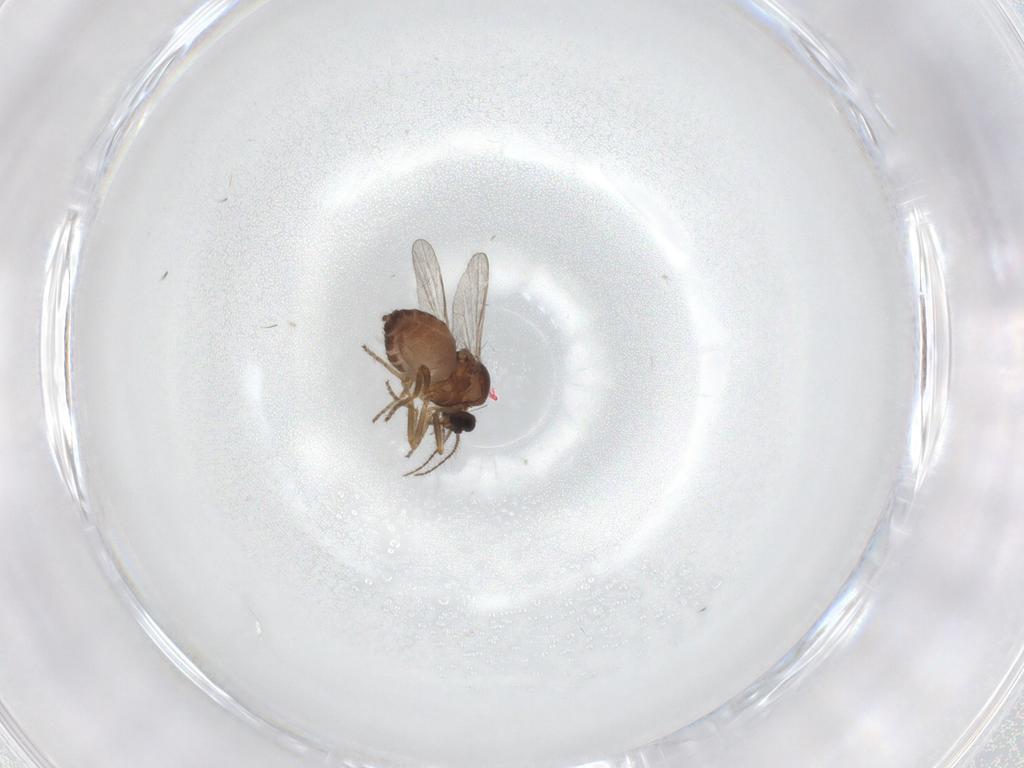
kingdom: Animalia
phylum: Arthropoda
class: Insecta
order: Diptera
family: Ceratopogonidae
